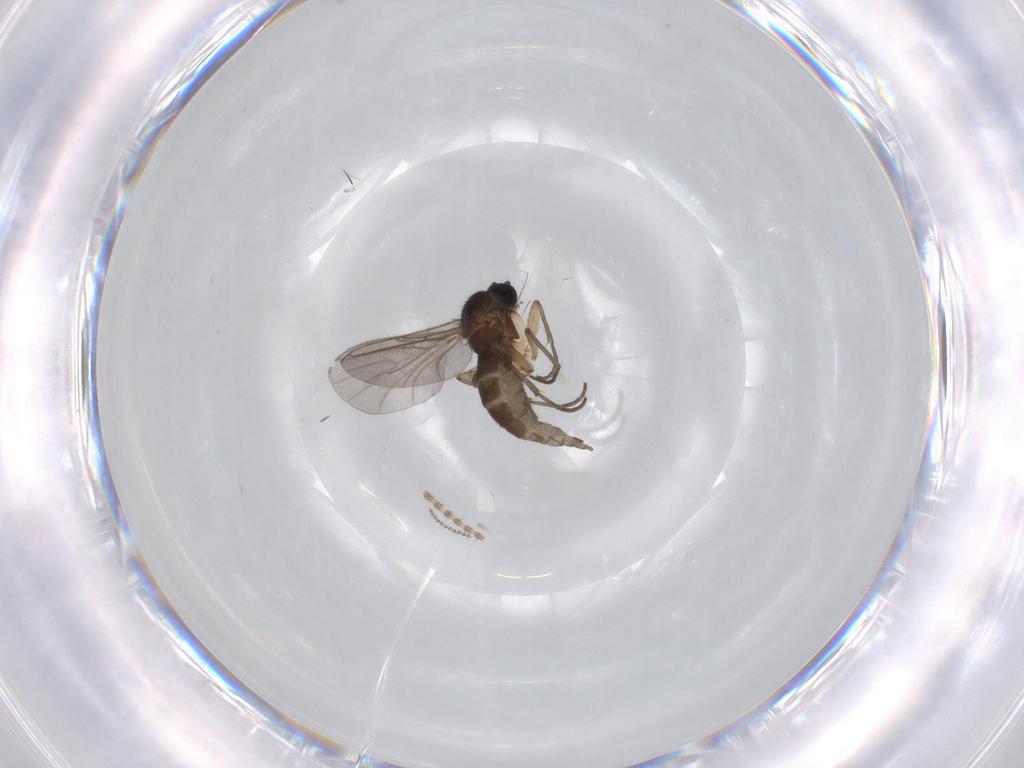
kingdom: Animalia
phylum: Arthropoda
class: Insecta
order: Diptera
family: Sciaridae
